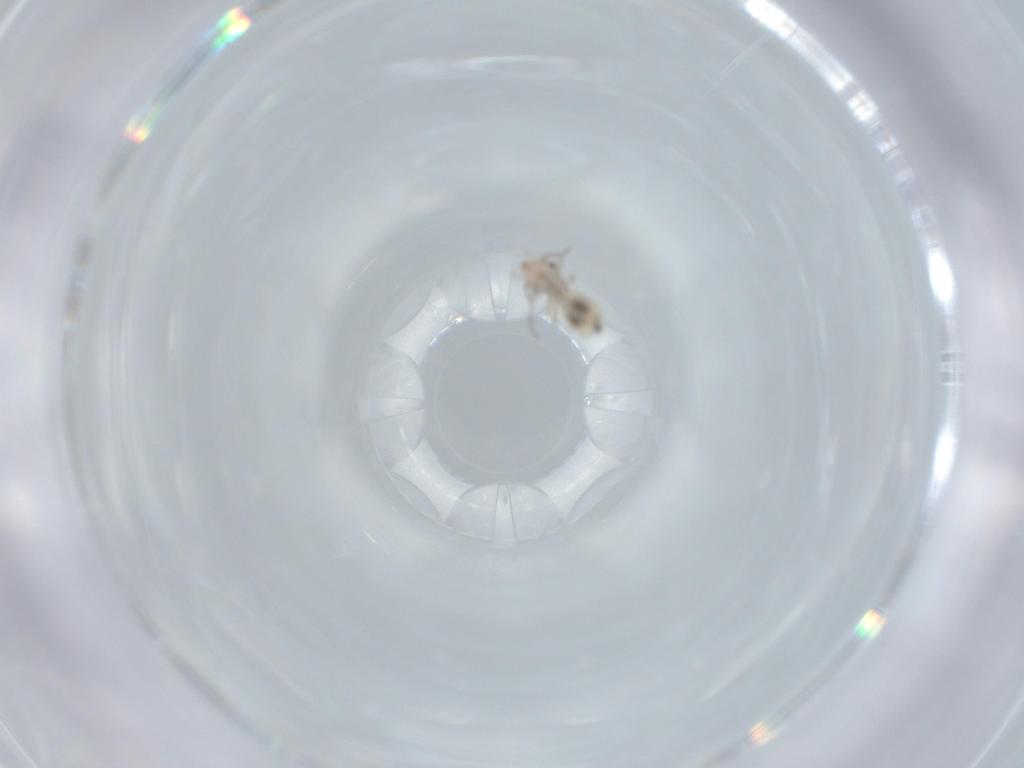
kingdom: Animalia
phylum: Arthropoda
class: Insecta
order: Psocodea
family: Lepidopsocidae
